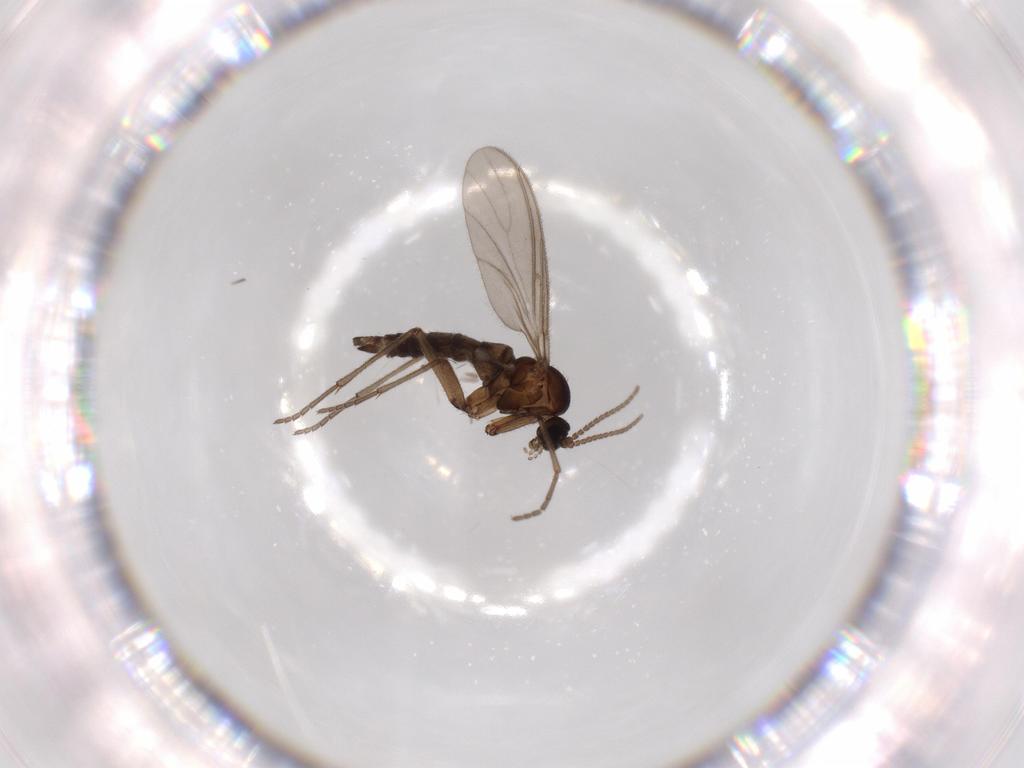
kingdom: Animalia
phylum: Arthropoda
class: Insecta
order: Diptera
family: Sciaridae
